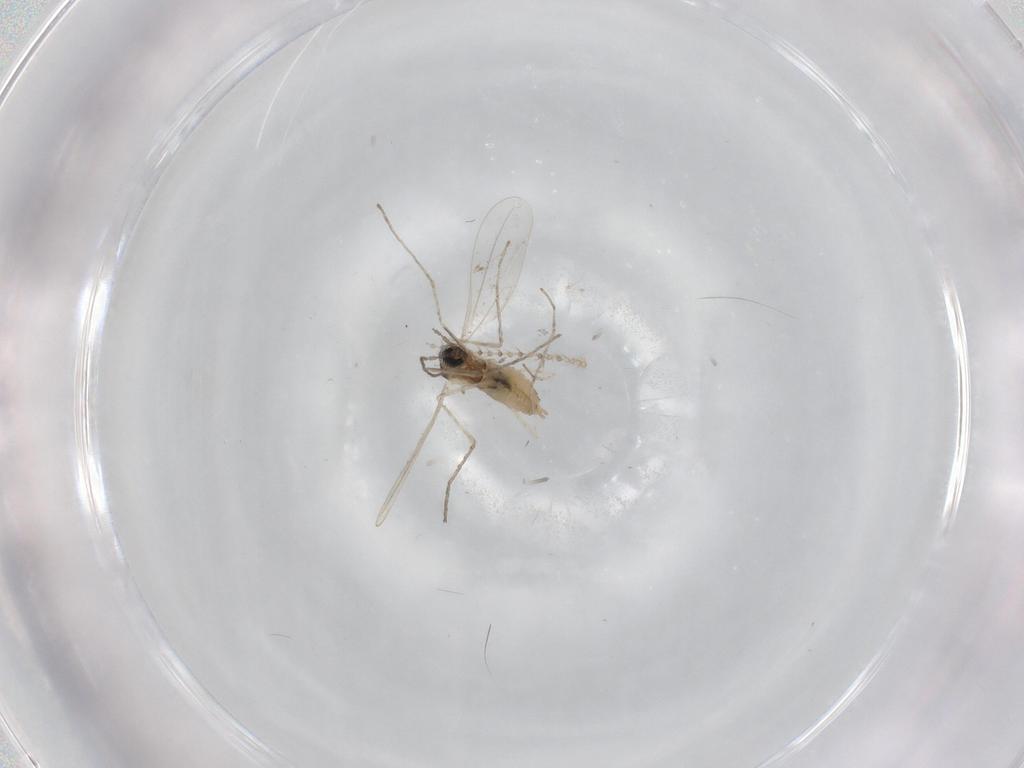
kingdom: Animalia
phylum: Arthropoda
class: Insecta
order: Diptera
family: Cecidomyiidae
